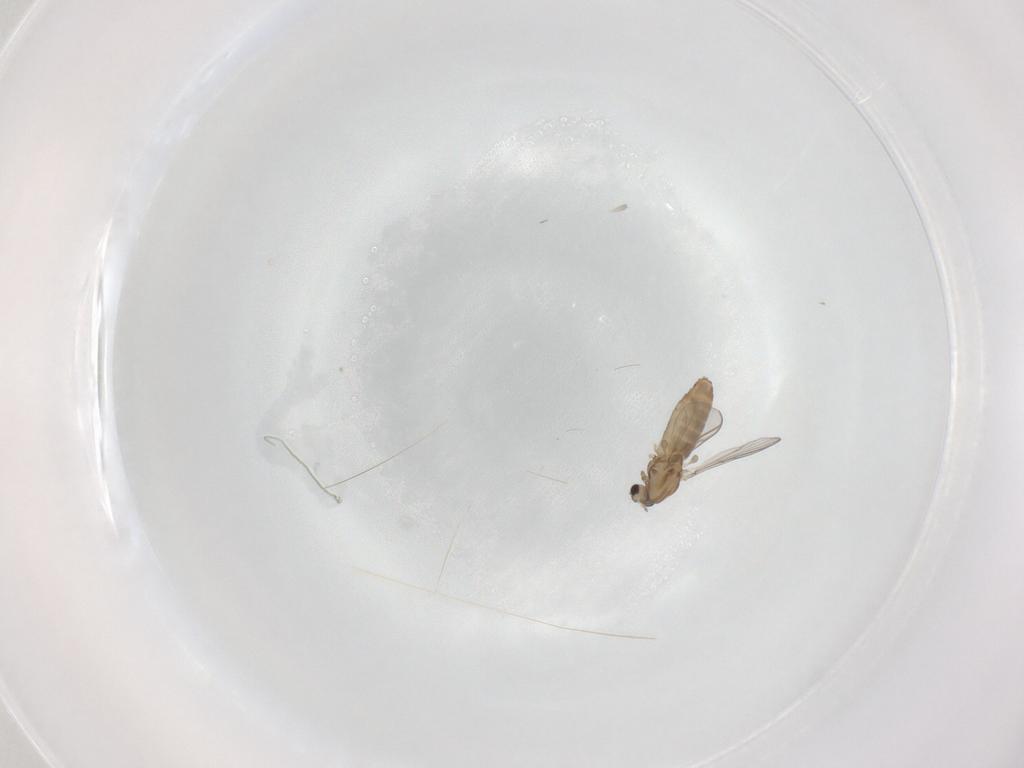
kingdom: Animalia
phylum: Arthropoda
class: Insecta
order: Diptera
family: Chironomidae
